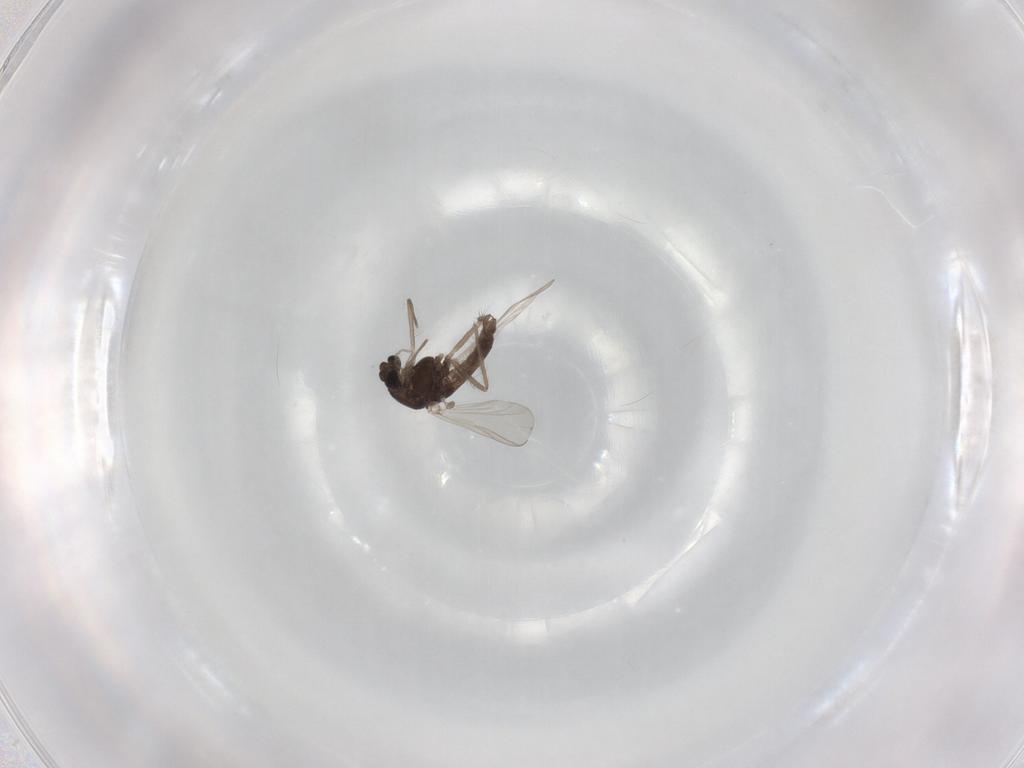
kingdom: Animalia
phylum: Arthropoda
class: Insecta
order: Diptera
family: Chironomidae
